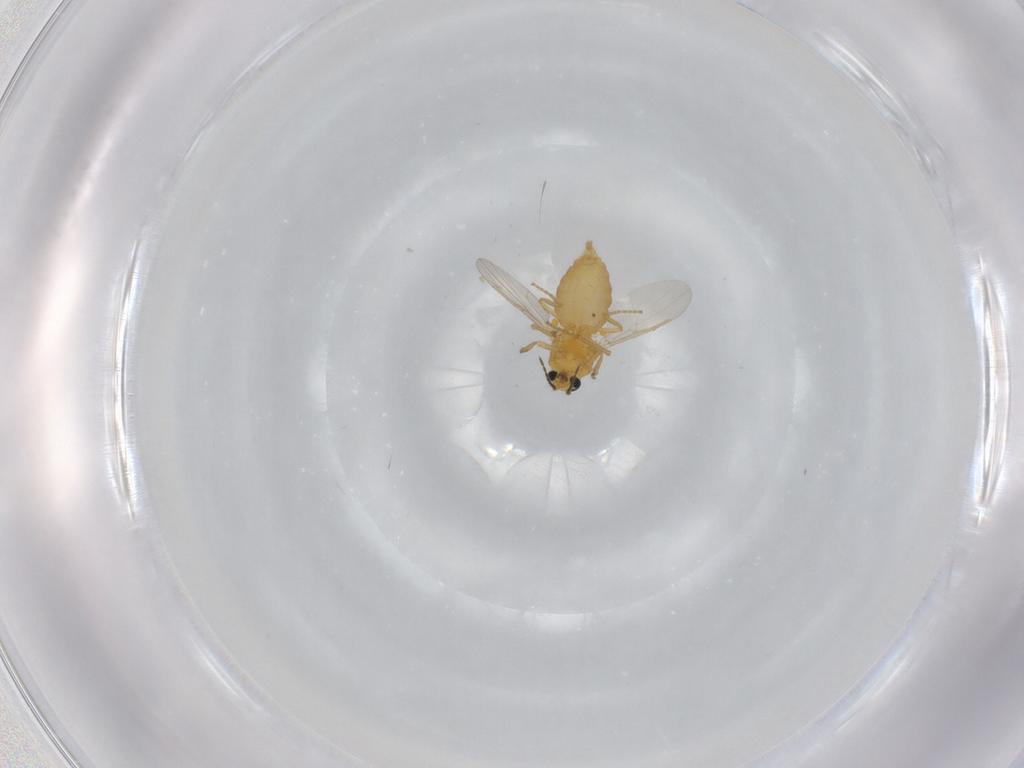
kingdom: Animalia
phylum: Arthropoda
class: Insecta
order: Diptera
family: Ceratopogonidae
